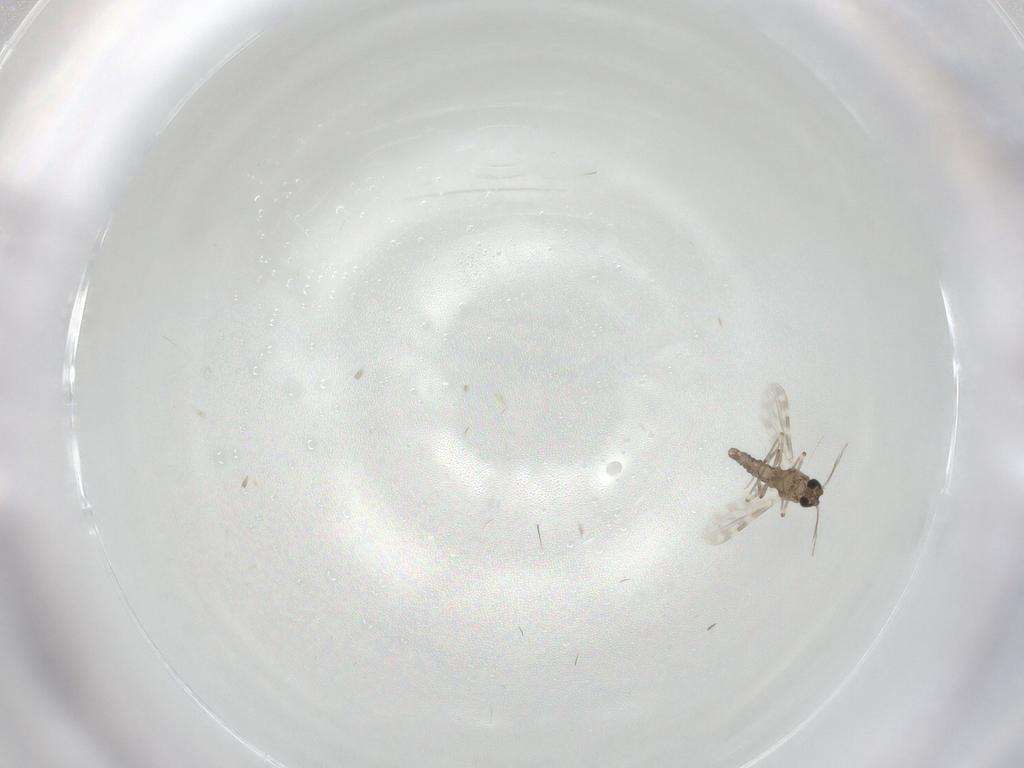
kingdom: Animalia
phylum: Arthropoda
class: Insecta
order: Diptera
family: Ceratopogonidae
